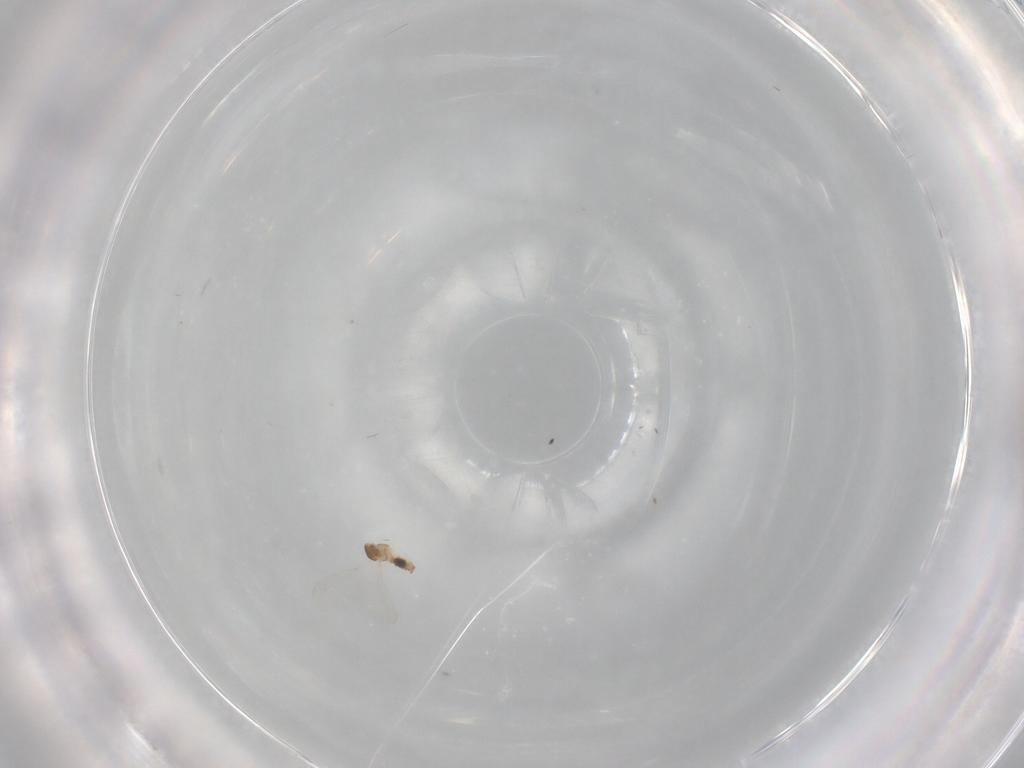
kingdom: Animalia
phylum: Arthropoda
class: Insecta
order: Diptera
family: Cecidomyiidae
